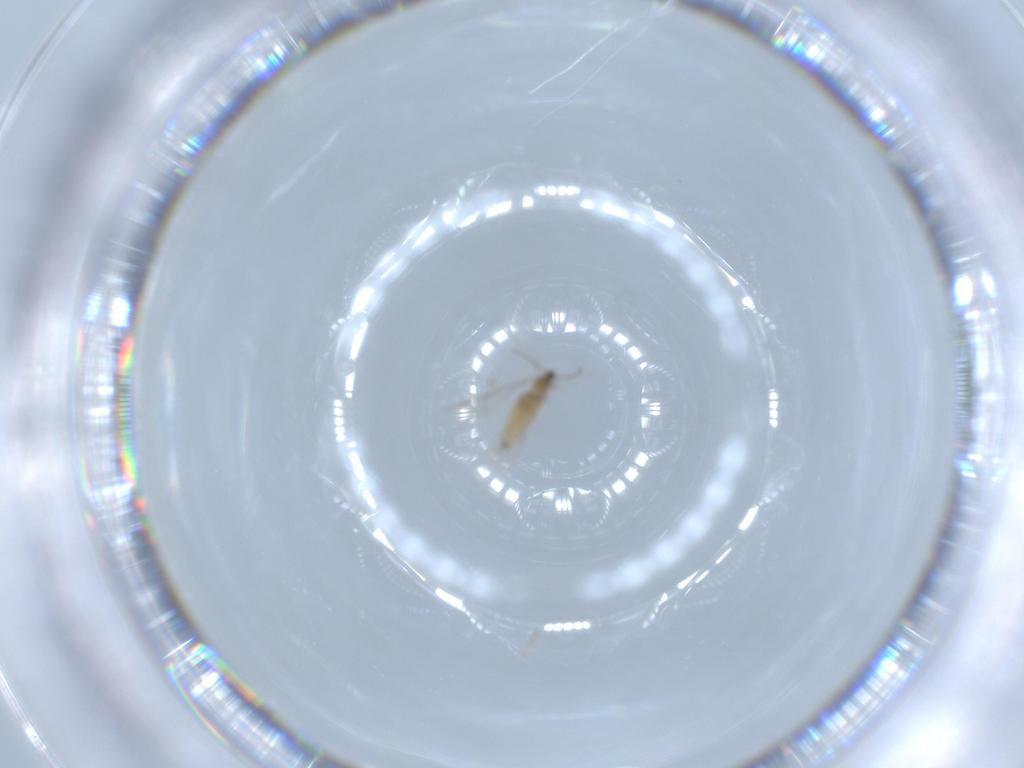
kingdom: Animalia
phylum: Arthropoda
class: Insecta
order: Diptera
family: Cecidomyiidae
